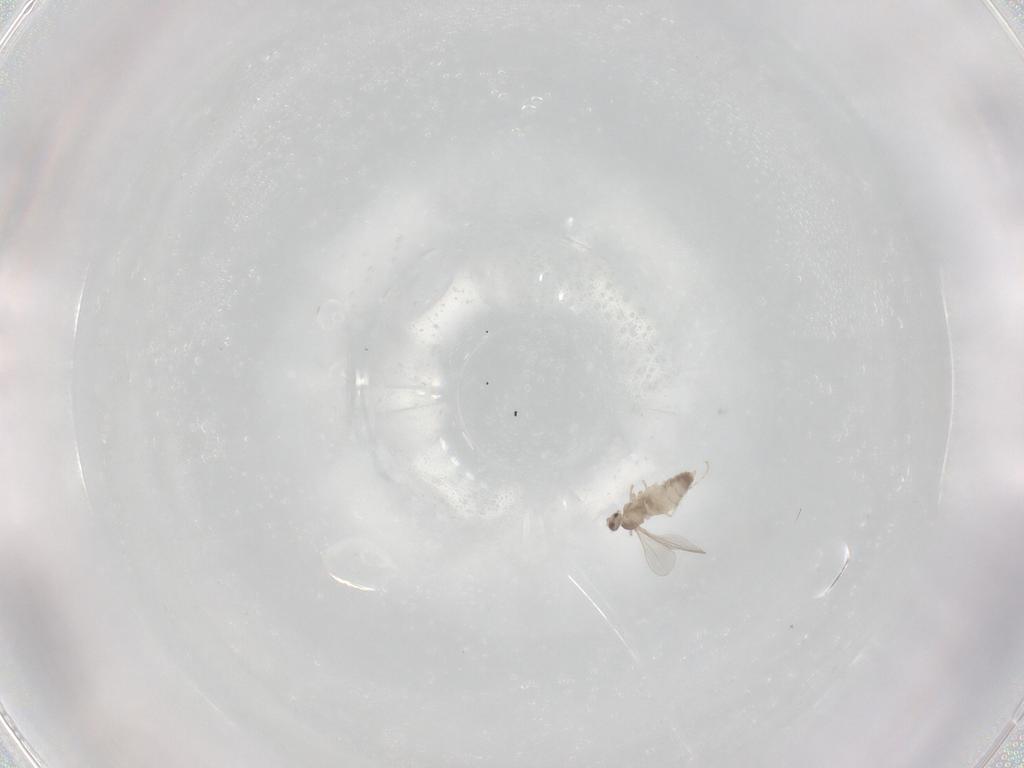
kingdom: Animalia
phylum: Arthropoda
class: Insecta
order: Diptera
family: Cecidomyiidae
